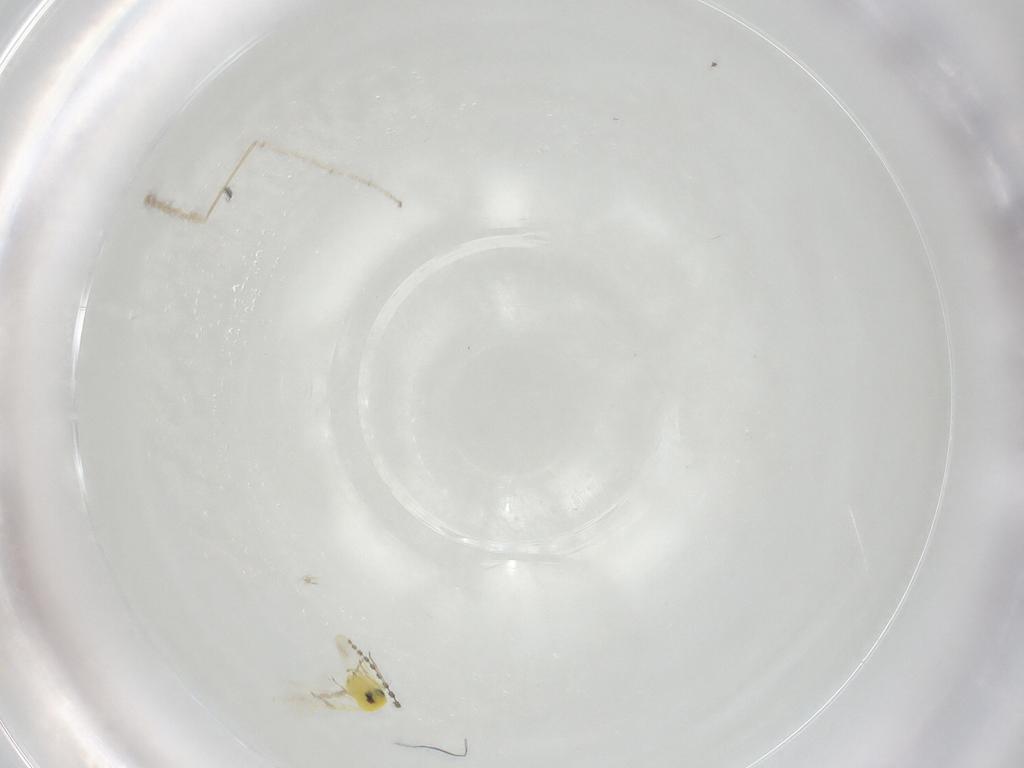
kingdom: Animalia
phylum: Arthropoda
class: Insecta
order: Diptera
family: Cecidomyiidae
